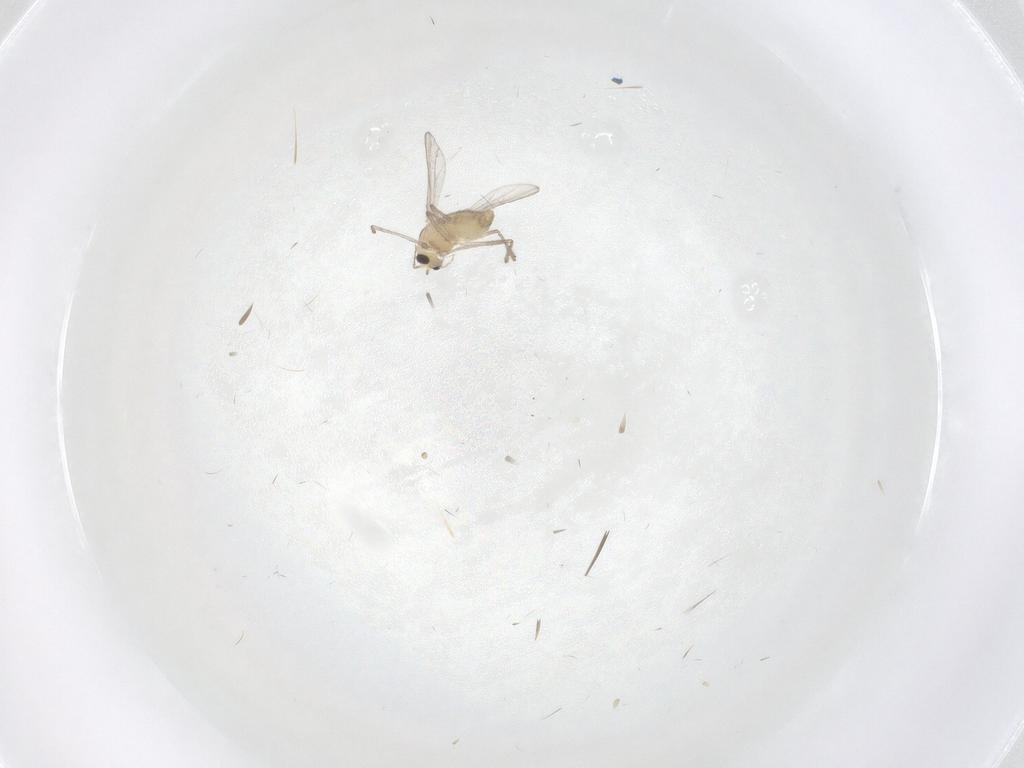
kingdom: Animalia
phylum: Arthropoda
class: Insecta
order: Diptera
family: Chironomidae
